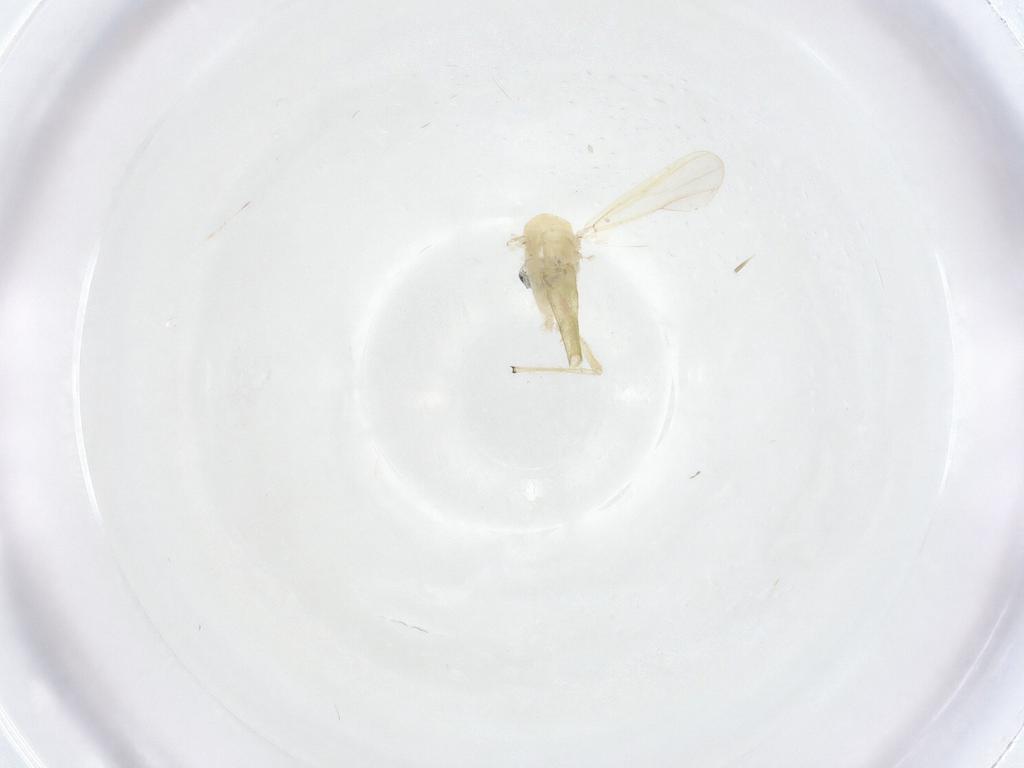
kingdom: Animalia
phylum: Arthropoda
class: Insecta
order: Diptera
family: Chironomidae
